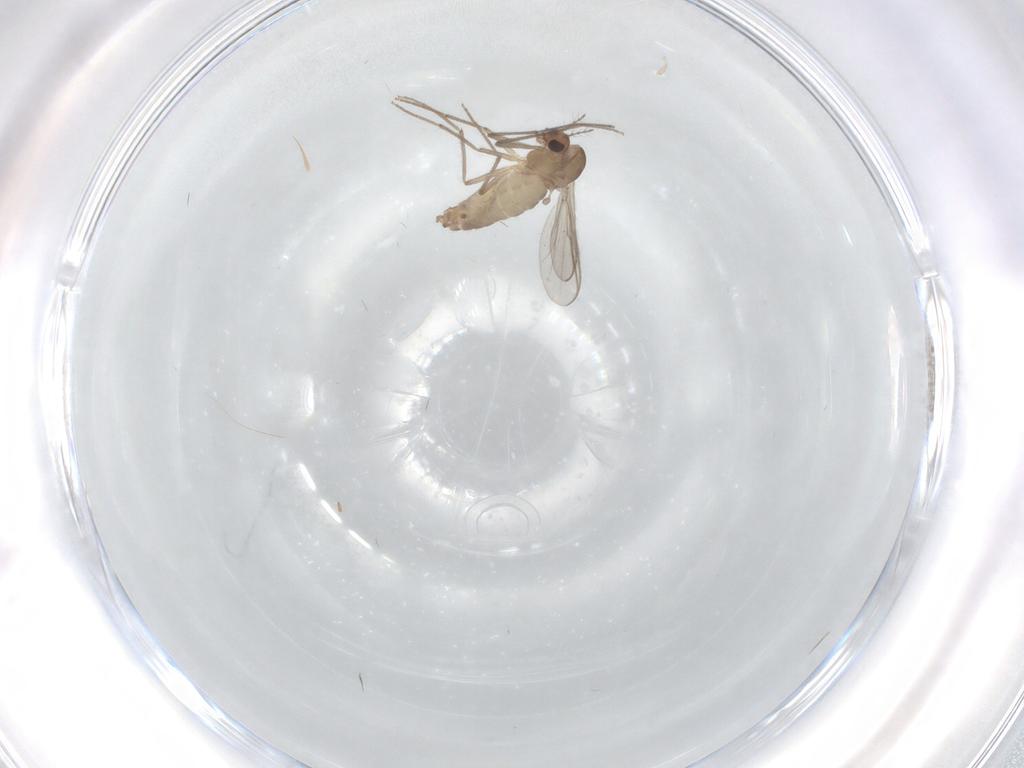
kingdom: Animalia
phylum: Arthropoda
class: Insecta
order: Diptera
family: Chironomidae
